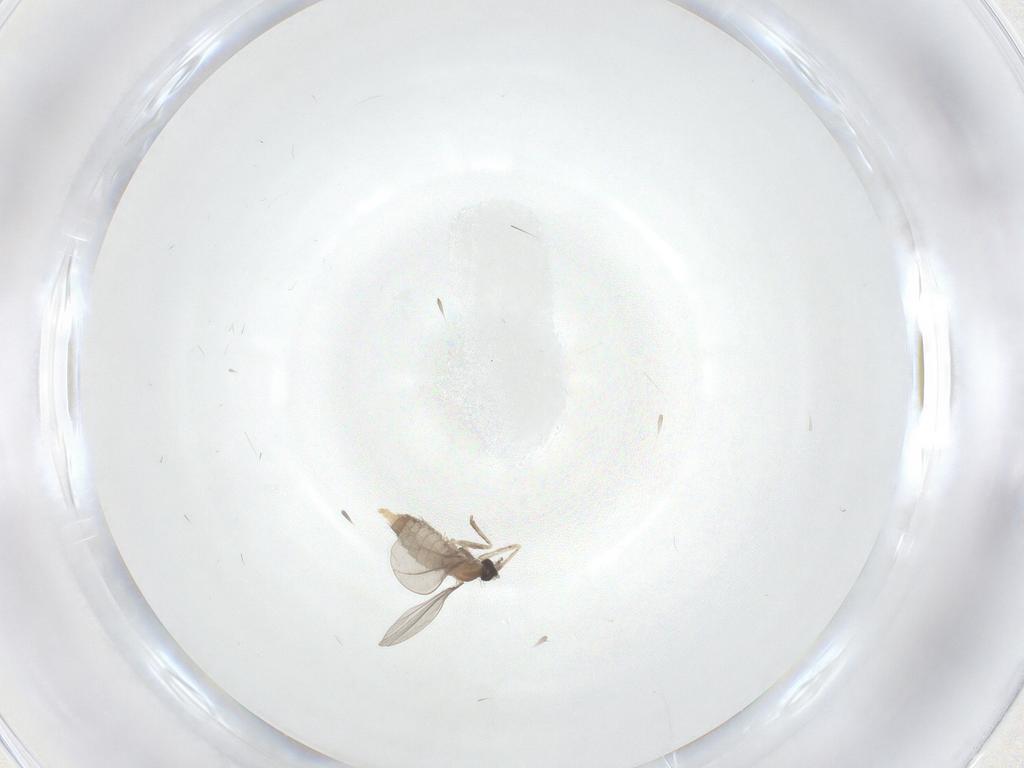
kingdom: Animalia
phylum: Arthropoda
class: Insecta
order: Diptera
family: Cecidomyiidae
